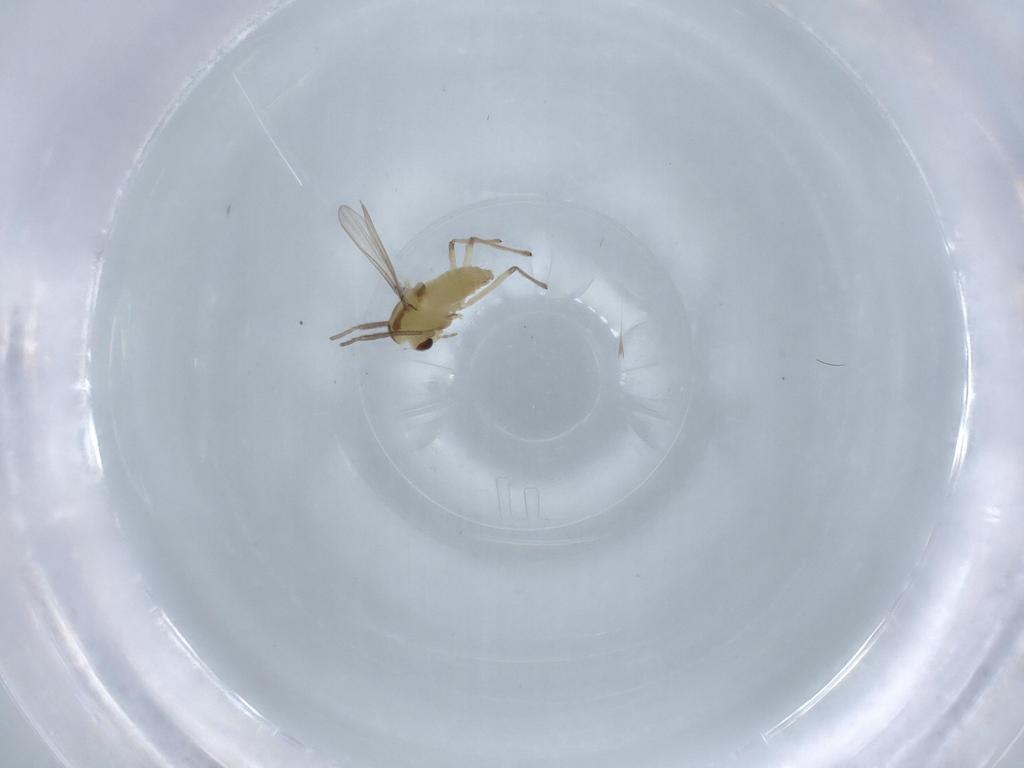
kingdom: Animalia
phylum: Arthropoda
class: Insecta
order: Diptera
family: Chironomidae
